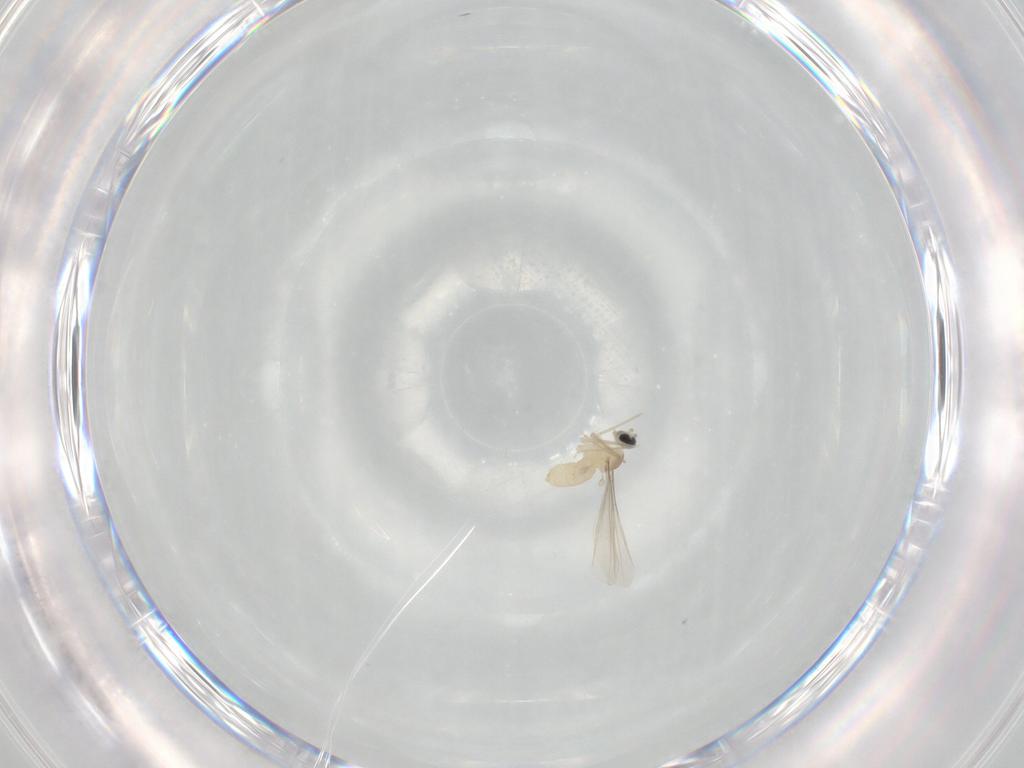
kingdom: Animalia
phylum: Arthropoda
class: Insecta
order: Diptera
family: Cecidomyiidae
